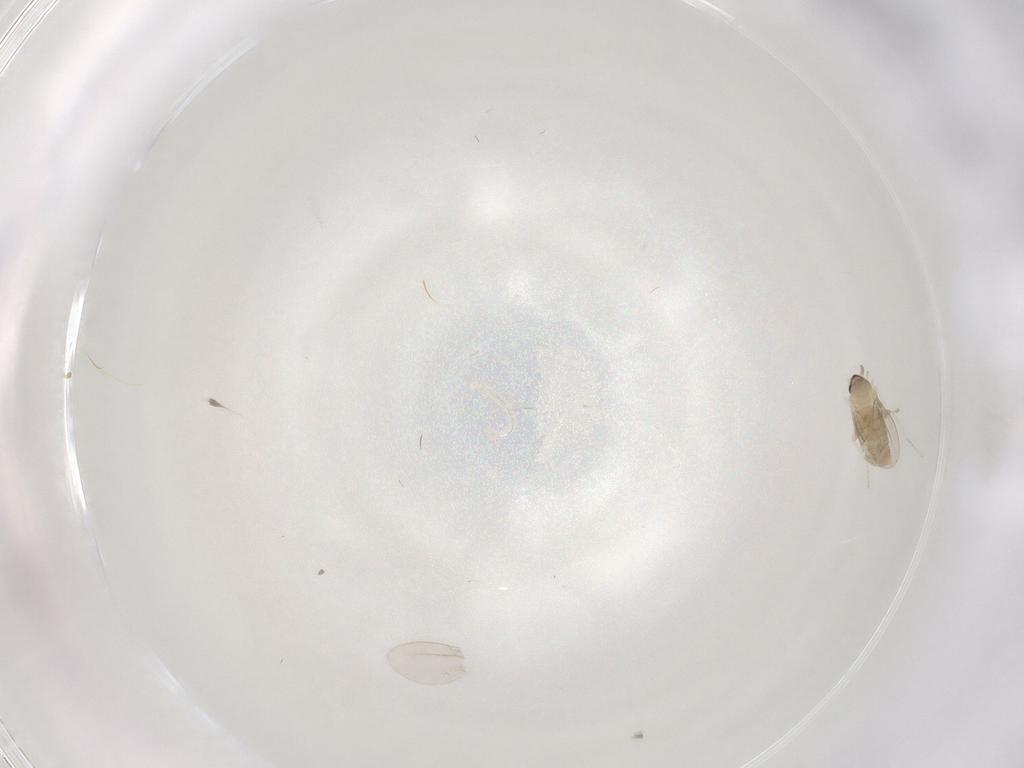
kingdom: Animalia
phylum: Arthropoda
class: Insecta
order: Diptera
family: Cecidomyiidae
